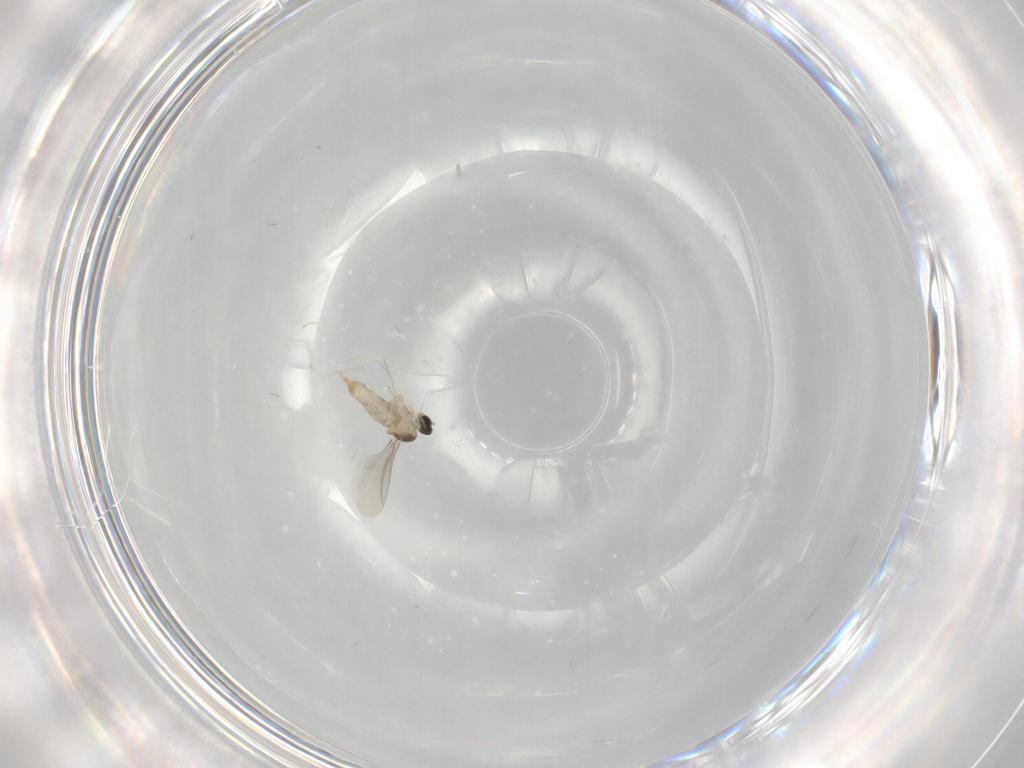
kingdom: Animalia
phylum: Arthropoda
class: Insecta
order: Diptera
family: Cecidomyiidae
